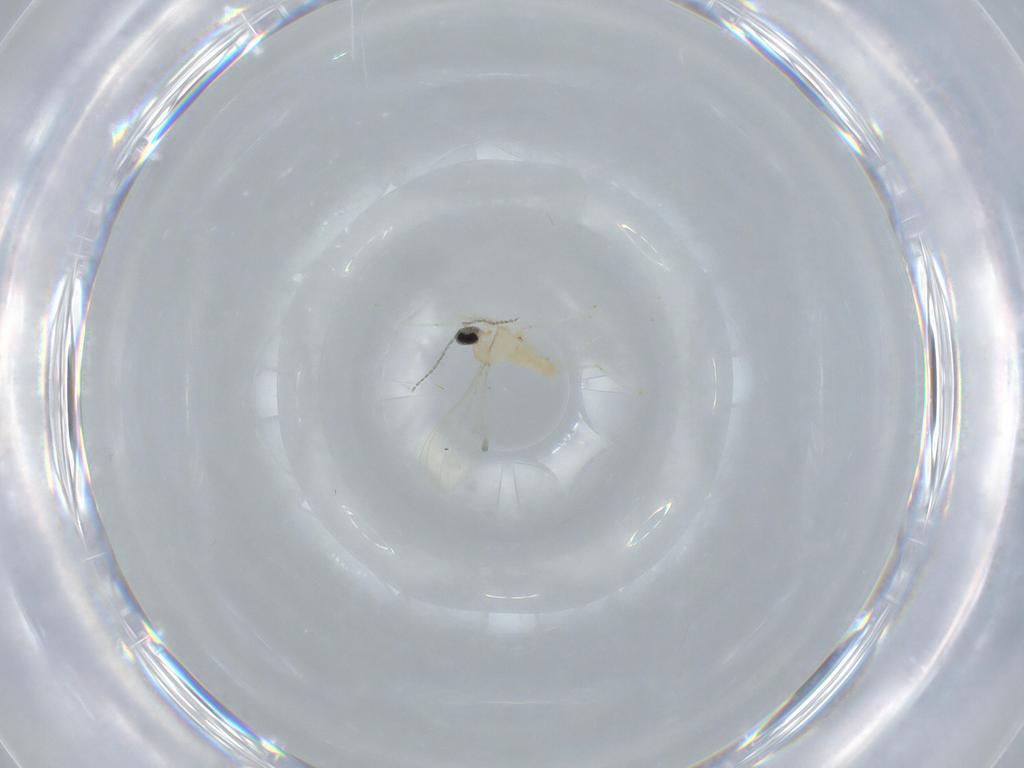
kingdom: Animalia
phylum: Arthropoda
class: Insecta
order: Diptera
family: Cecidomyiidae
